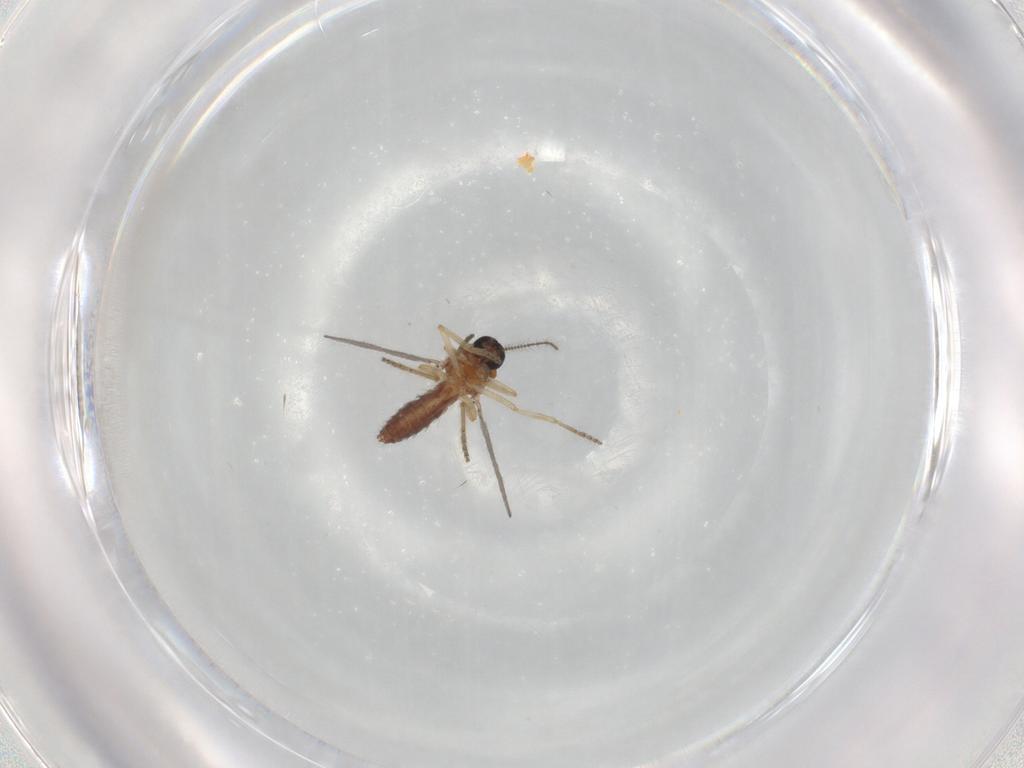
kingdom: Animalia
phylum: Arthropoda
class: Insecta
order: Diptera
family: Ceratopogonidae
